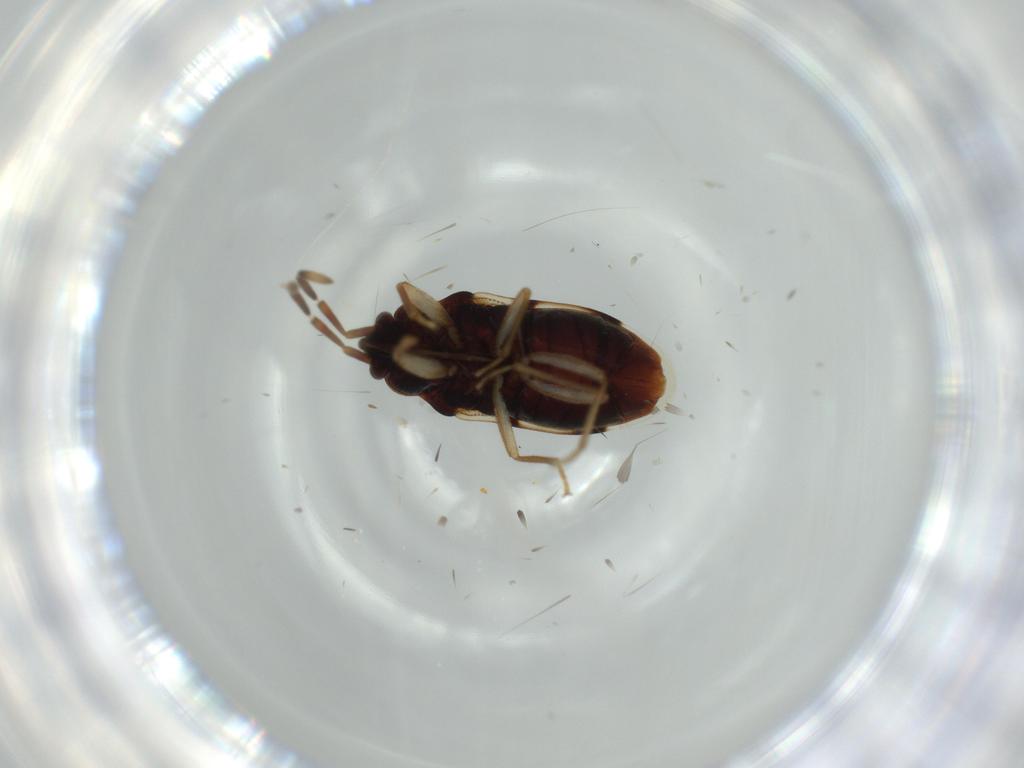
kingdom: Animalia
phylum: Arthropoda
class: Insecta
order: Hemiptera
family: Rhyparochromidae
